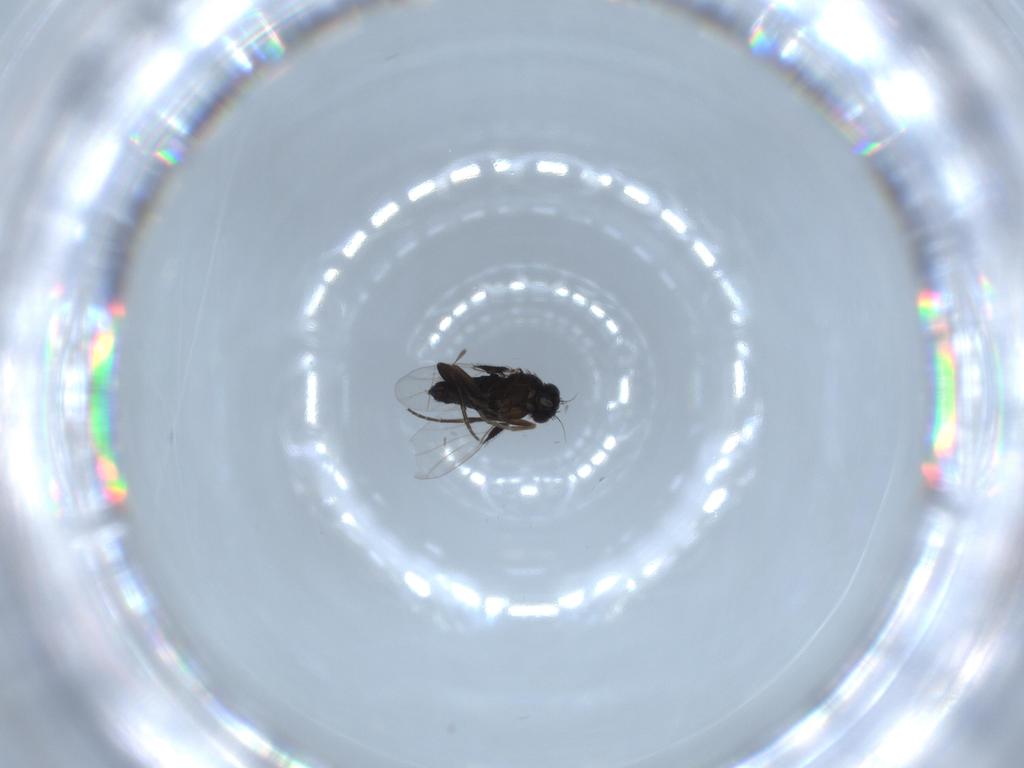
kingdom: Animalia
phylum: Arthropoda
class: Insecta
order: Diptera
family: Phoridae
